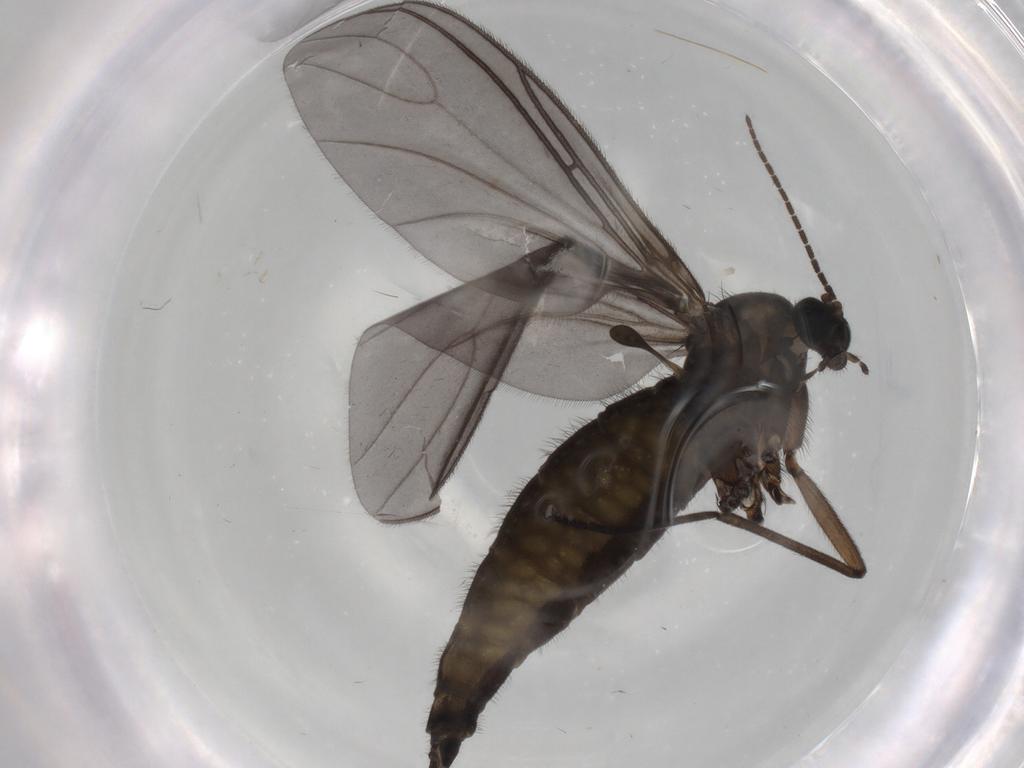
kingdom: Animalia
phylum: Arthropoda
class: Insecta
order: Diptera
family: Sciaridae
